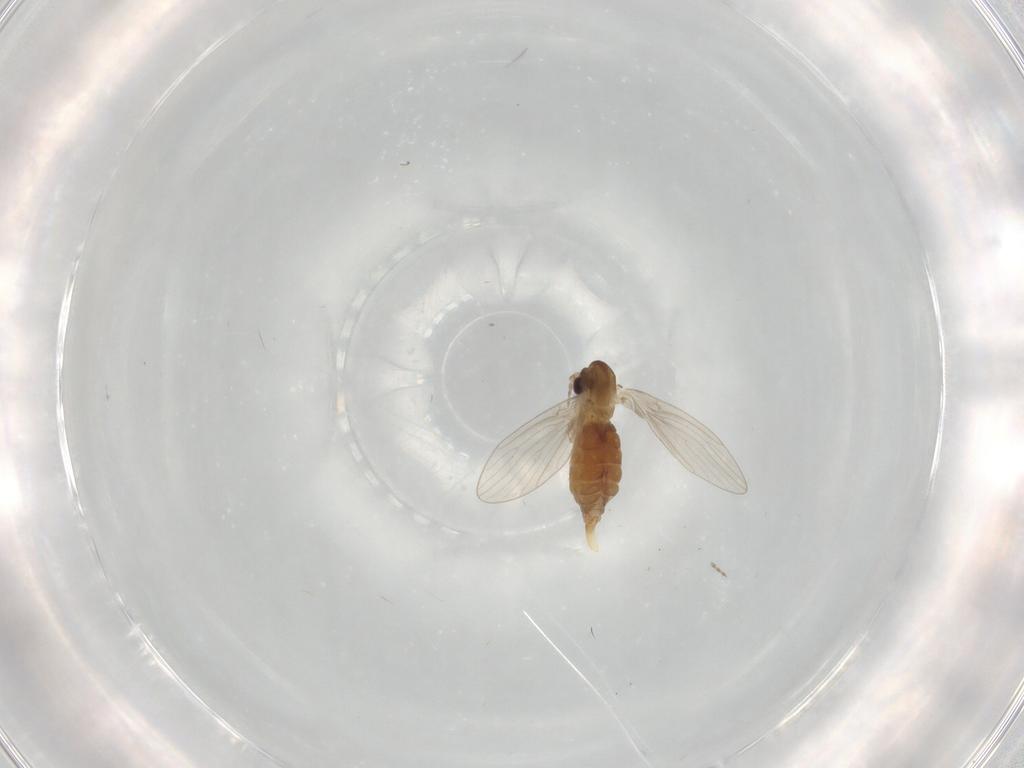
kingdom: Animalia
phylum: Arthropoda
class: Insecta
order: Diptera
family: Psychodidae
